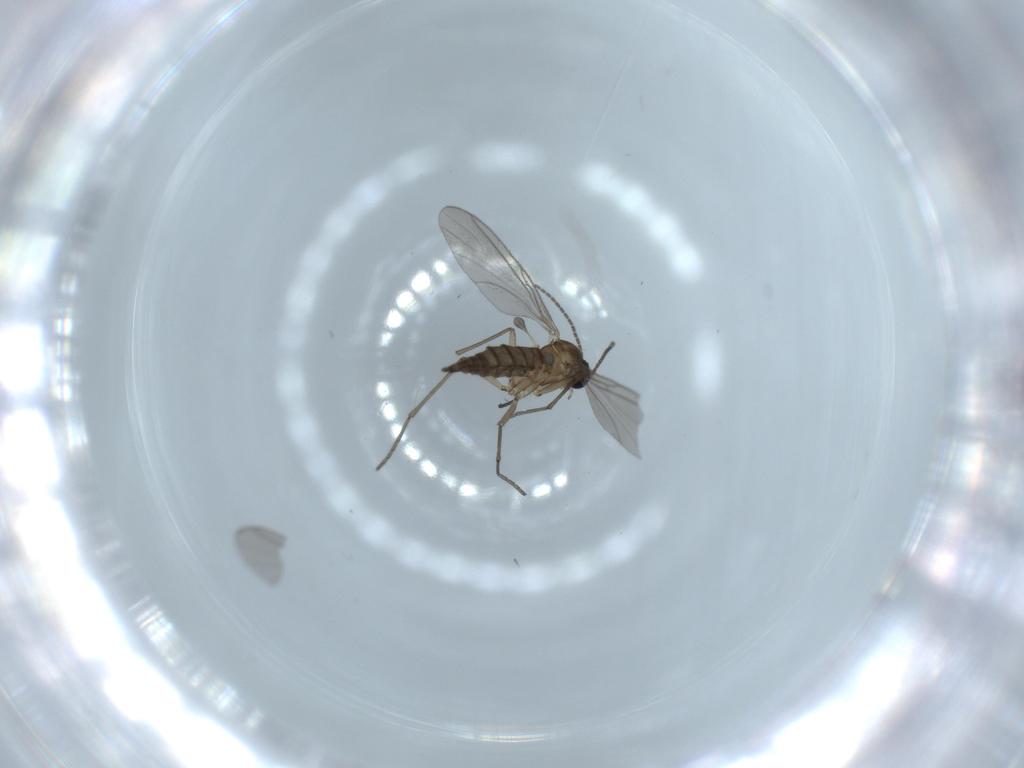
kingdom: Animalia
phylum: Arthropoda
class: Insecta
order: Diptera
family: Sciaridae
